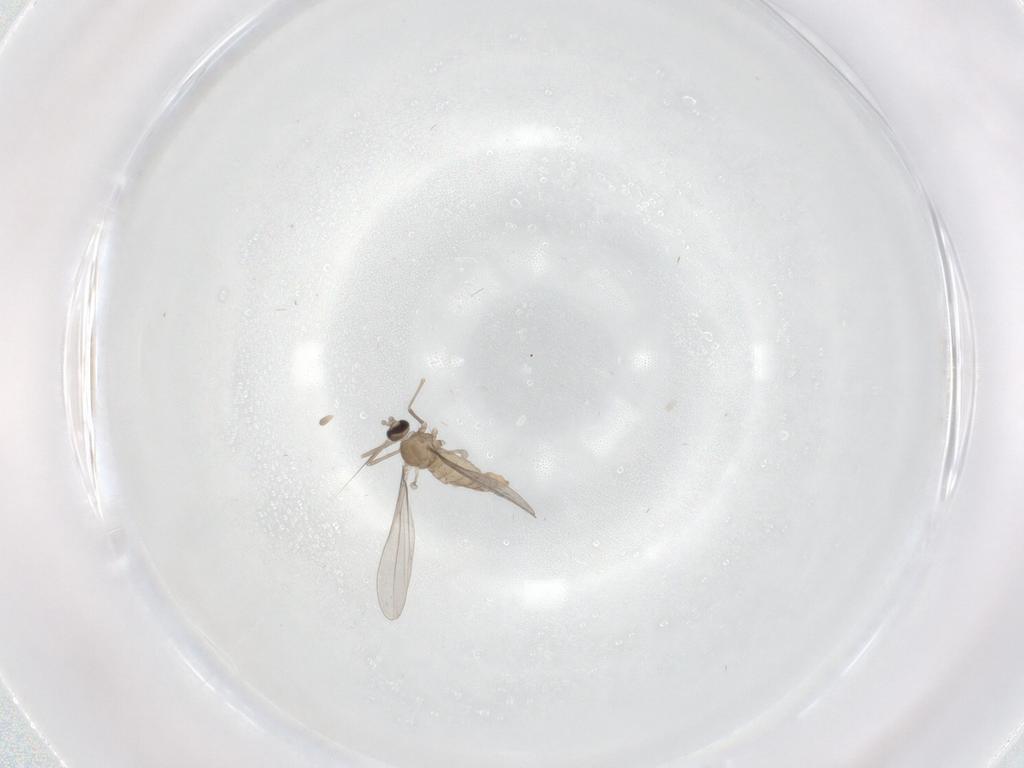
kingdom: Animalia
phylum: Arthropoda
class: Insecta
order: Diptera
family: Cecidomyiidae
